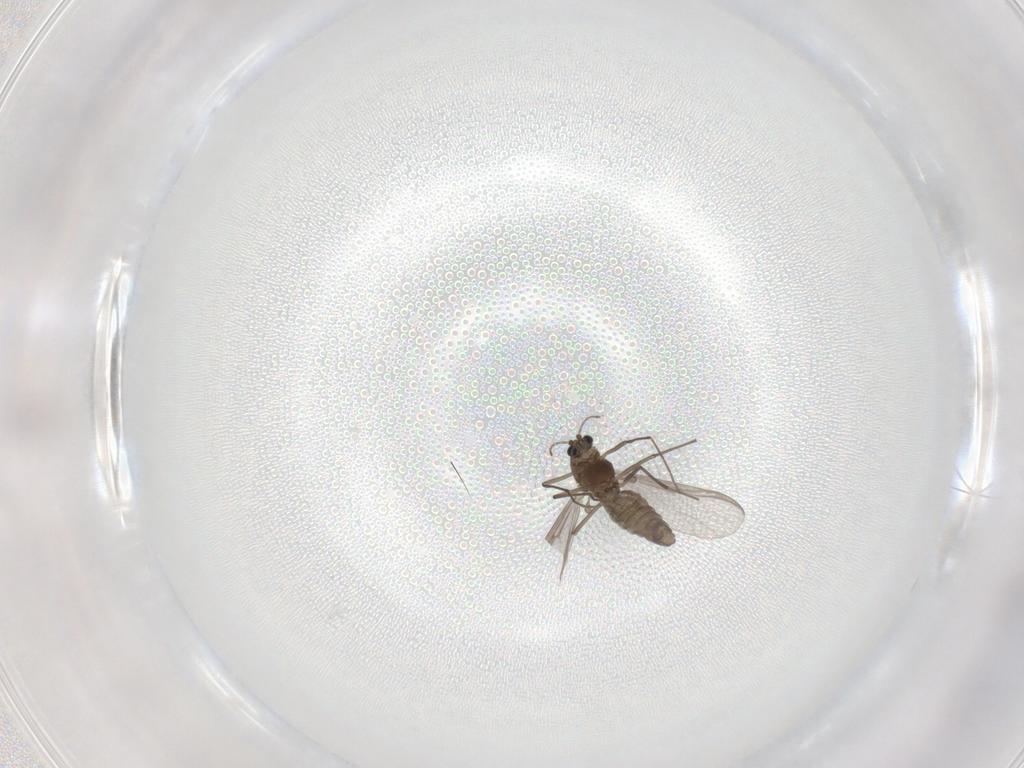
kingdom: Animalia
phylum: Arthropoda
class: Insecta
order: Diptera
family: Chironomidae
